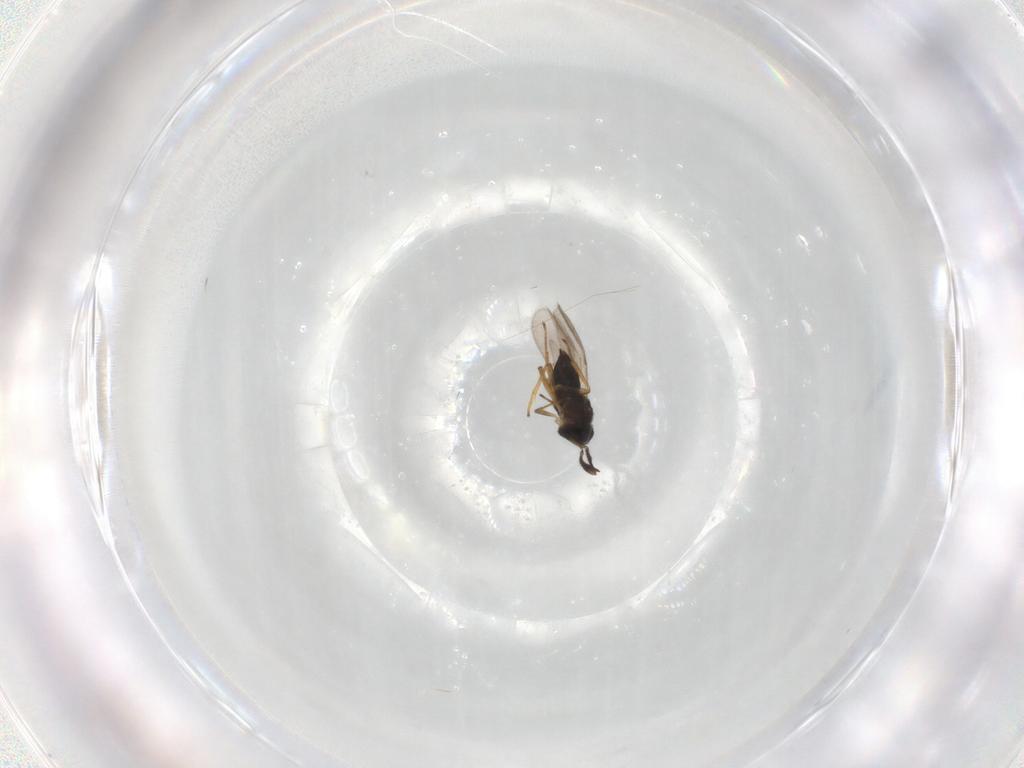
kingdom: Animalia
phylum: Arthropoda
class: Insecta
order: Hymenoptera
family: Encyrtidae
